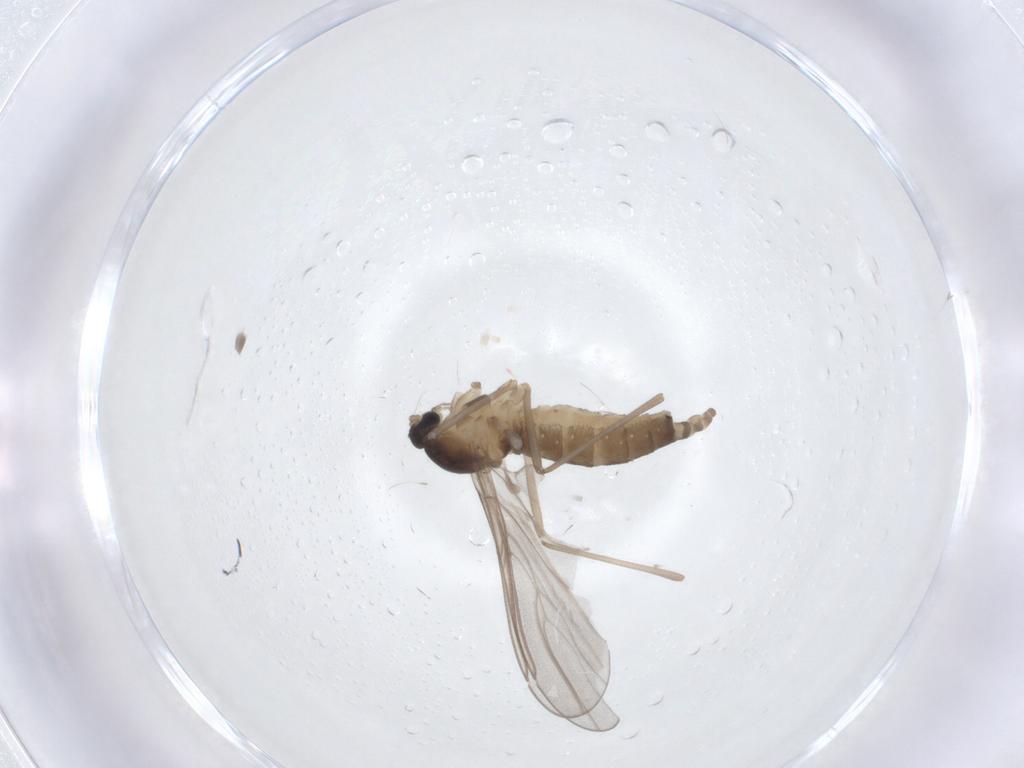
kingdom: Animalia
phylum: Arthropoda
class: Insecta
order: Diptera
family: Cecidomyiidae
